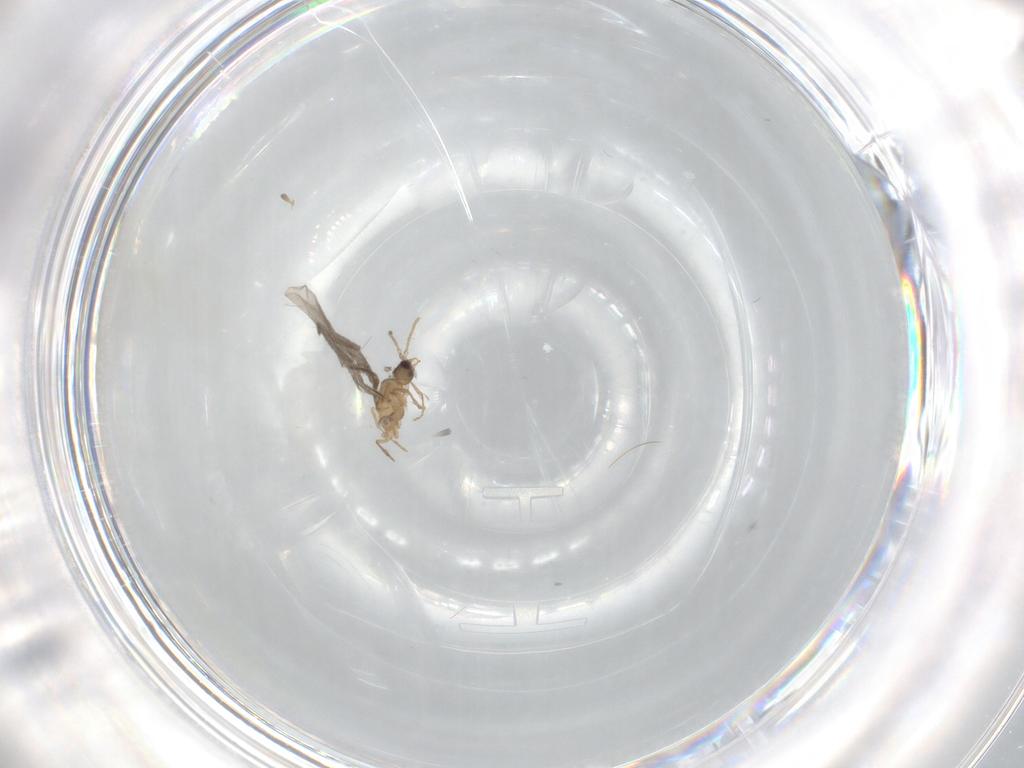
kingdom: Animalia
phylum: Arthropoda
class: Insecta
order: Hymenoptera
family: Formicidae
